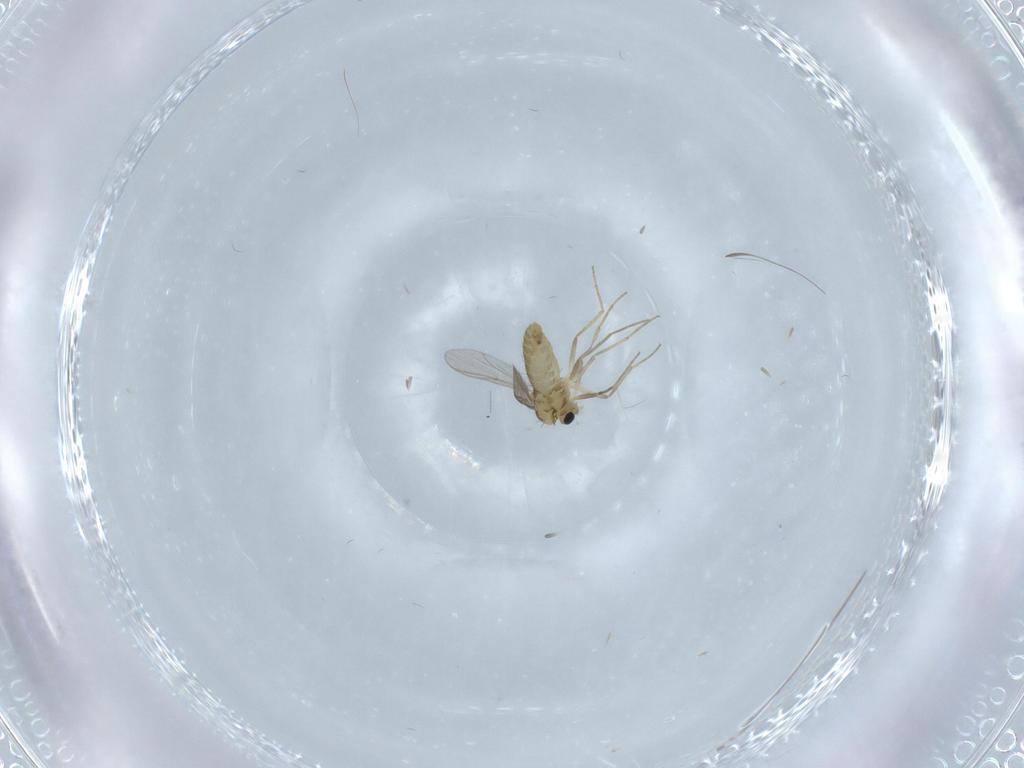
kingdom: Animalia
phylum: Arthropoda
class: Insecta
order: Diptera
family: Chironomidae
